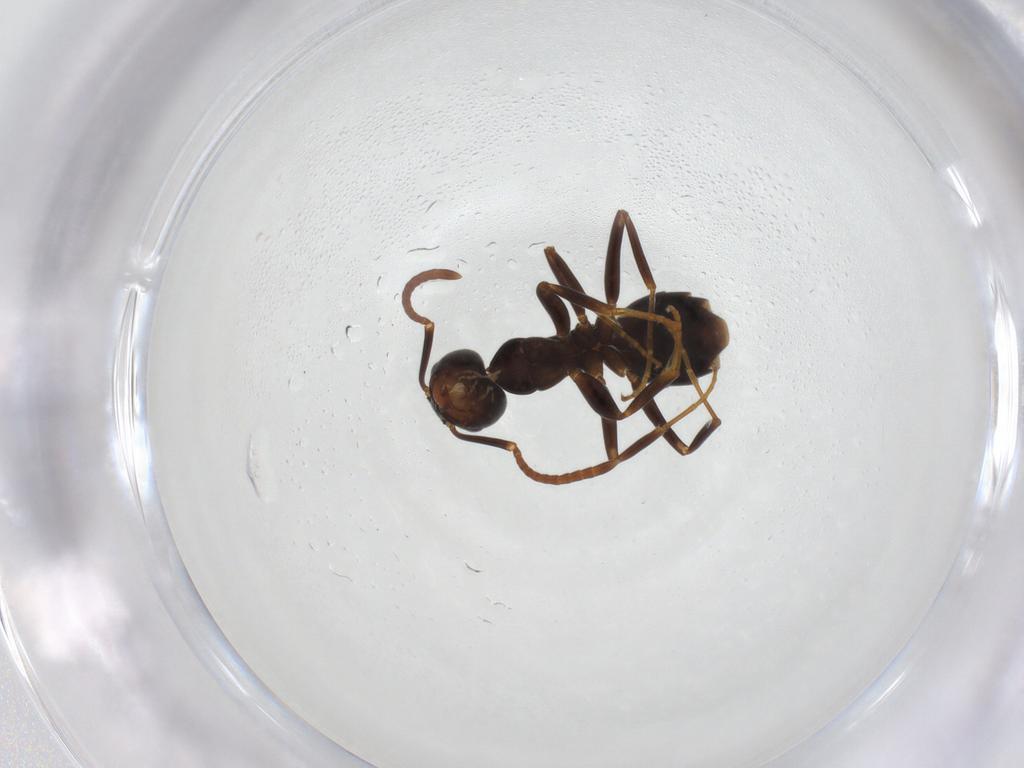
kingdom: Animalia
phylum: Arthropoda
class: Insecta
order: Hymenoptera
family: Formicidae
